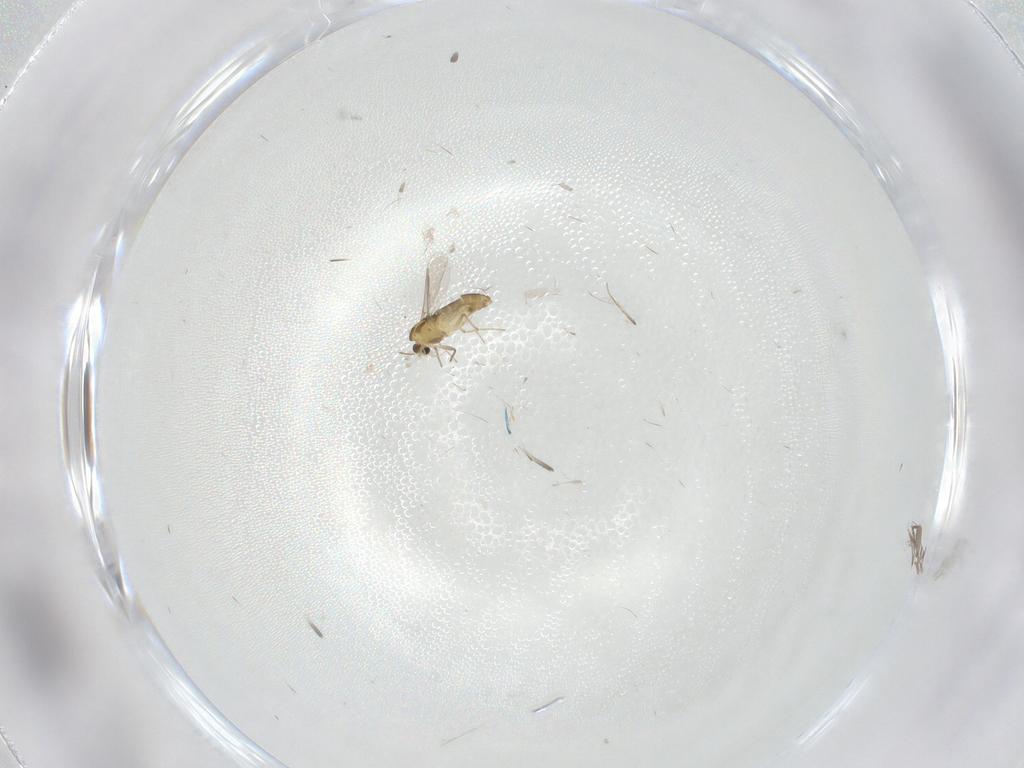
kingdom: Animalia
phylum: Arthropoda
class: Insecta
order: Diptera
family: Chironomidae
